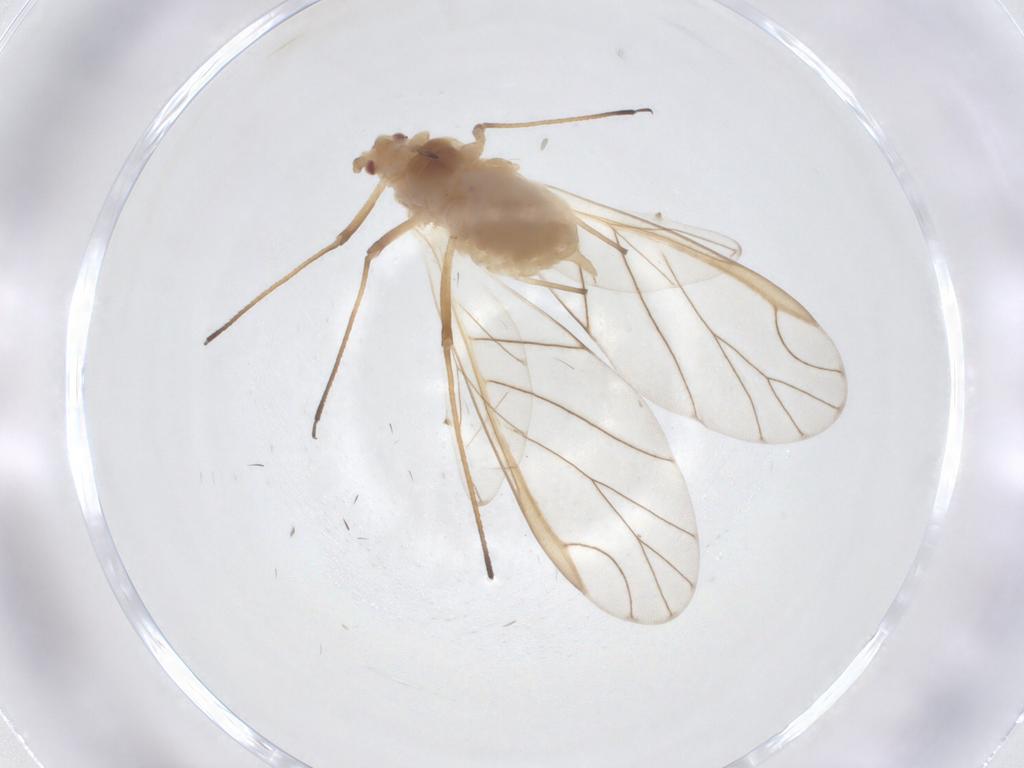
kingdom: Animalia
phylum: Arthropoda
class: Insecta
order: Hemiptera
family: Aphididae
